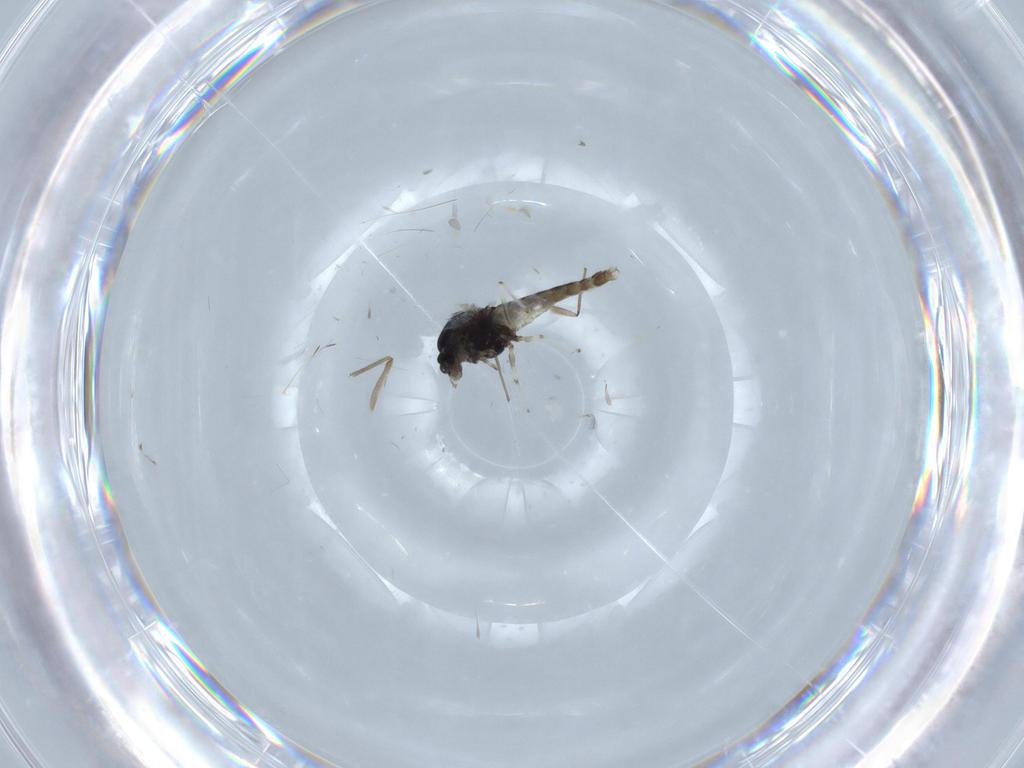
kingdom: Animalia
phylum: Arthropoda
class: Insecta
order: Diptera
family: Chironomidae
